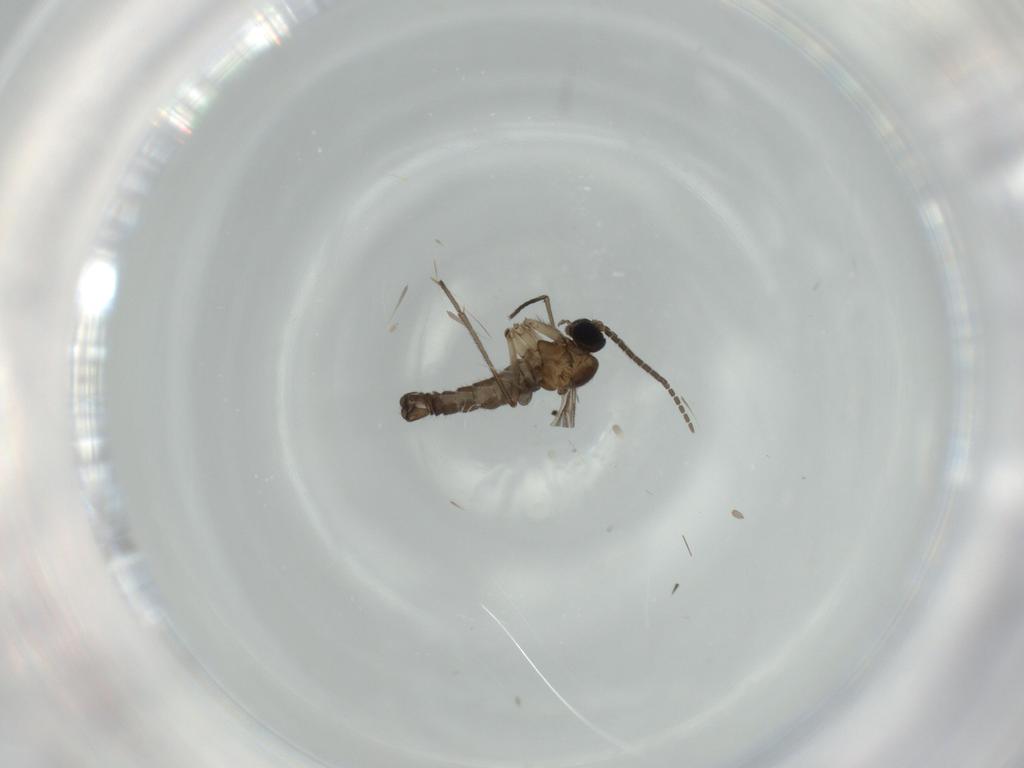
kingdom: Animalia
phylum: Arthropoda
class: Insecta
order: Diptera
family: Sciaridae
